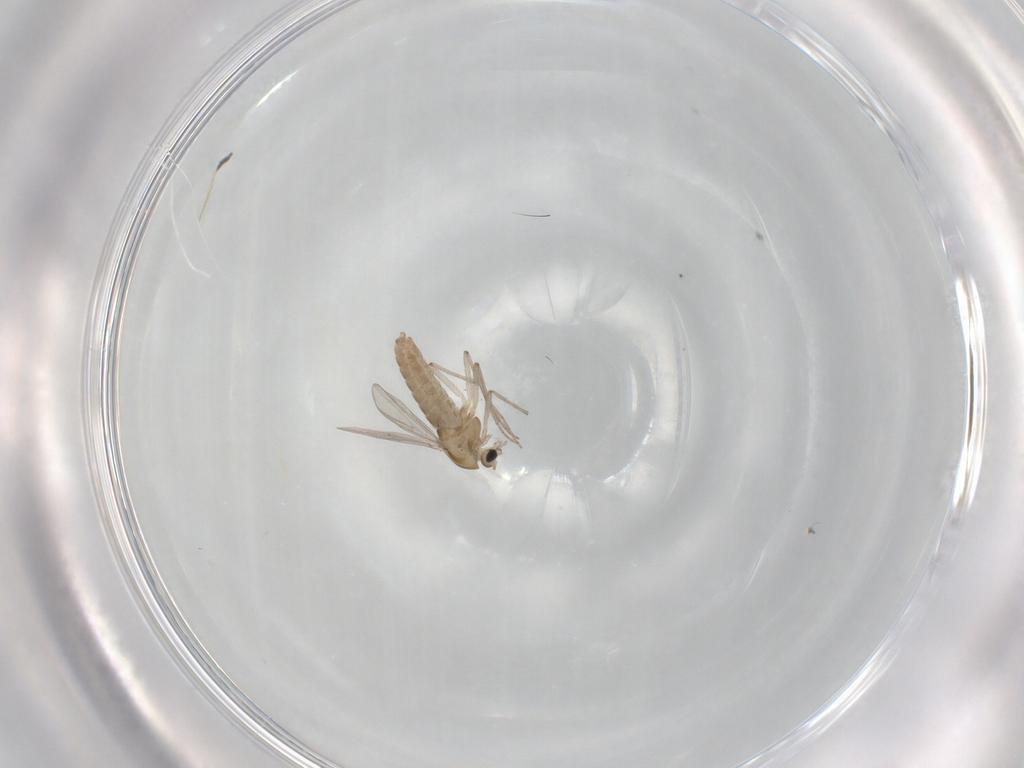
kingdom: Animalia
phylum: Arthropoda
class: Insecta
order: Diptera
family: Chironomidae
